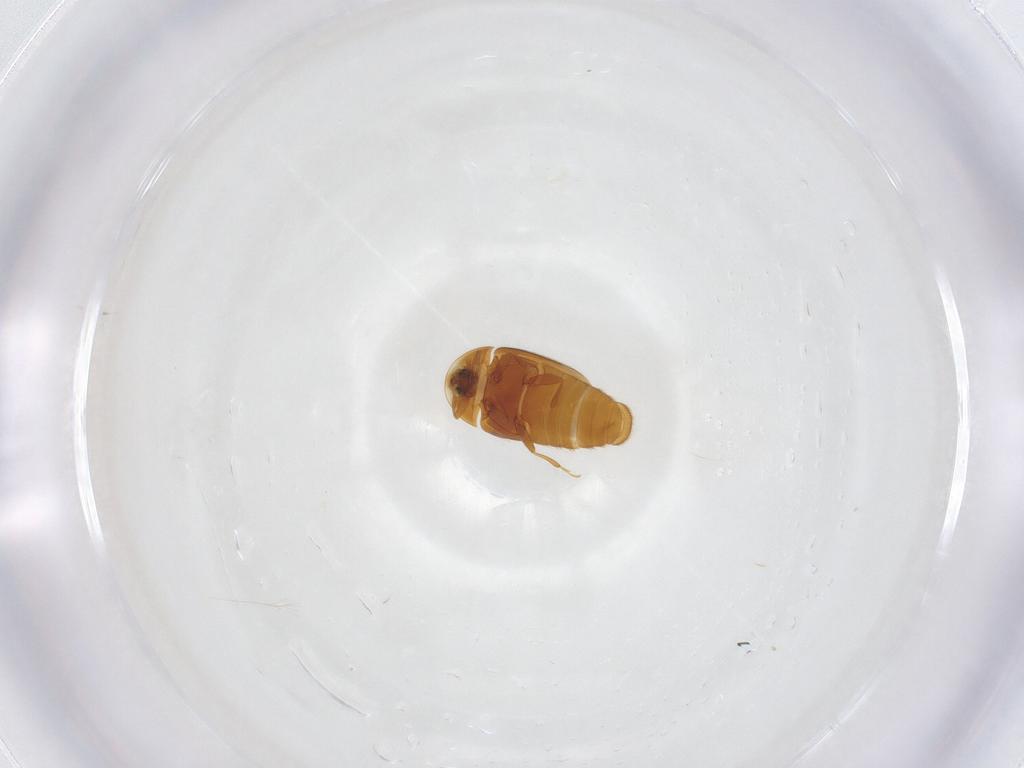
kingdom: Animalia
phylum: Arthropoda
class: Insecta
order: Coleoptera
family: Corylophidae
